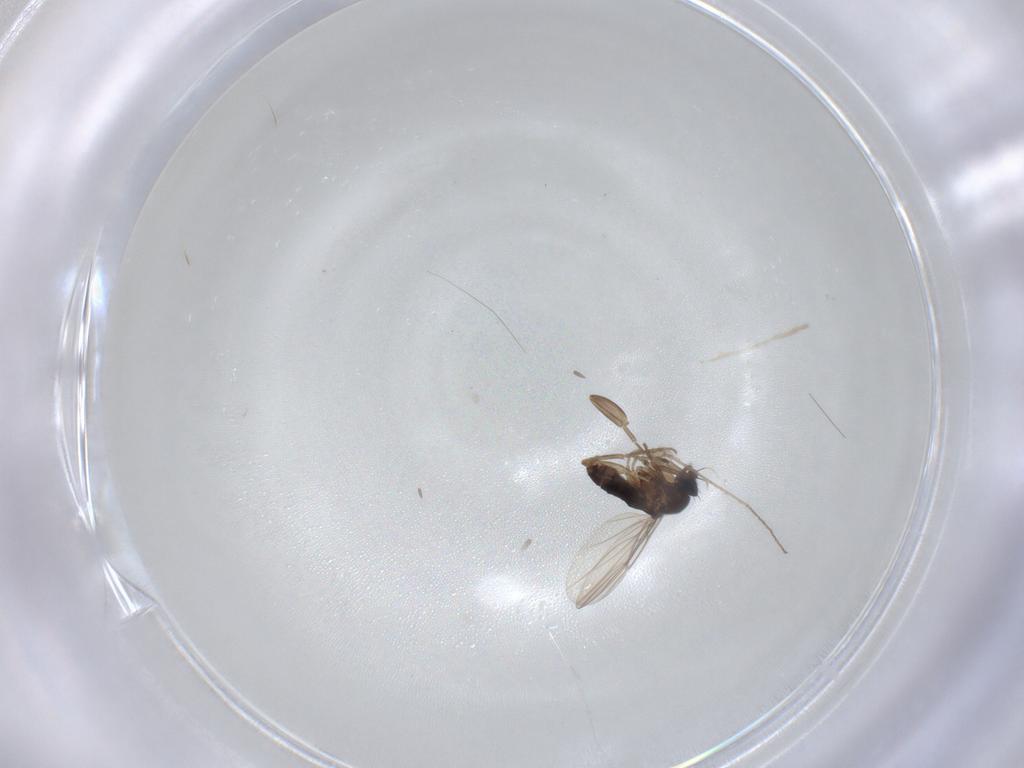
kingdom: Animalia
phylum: Arthropoda
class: Insecta
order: Diptera
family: Cecidomyiidae
